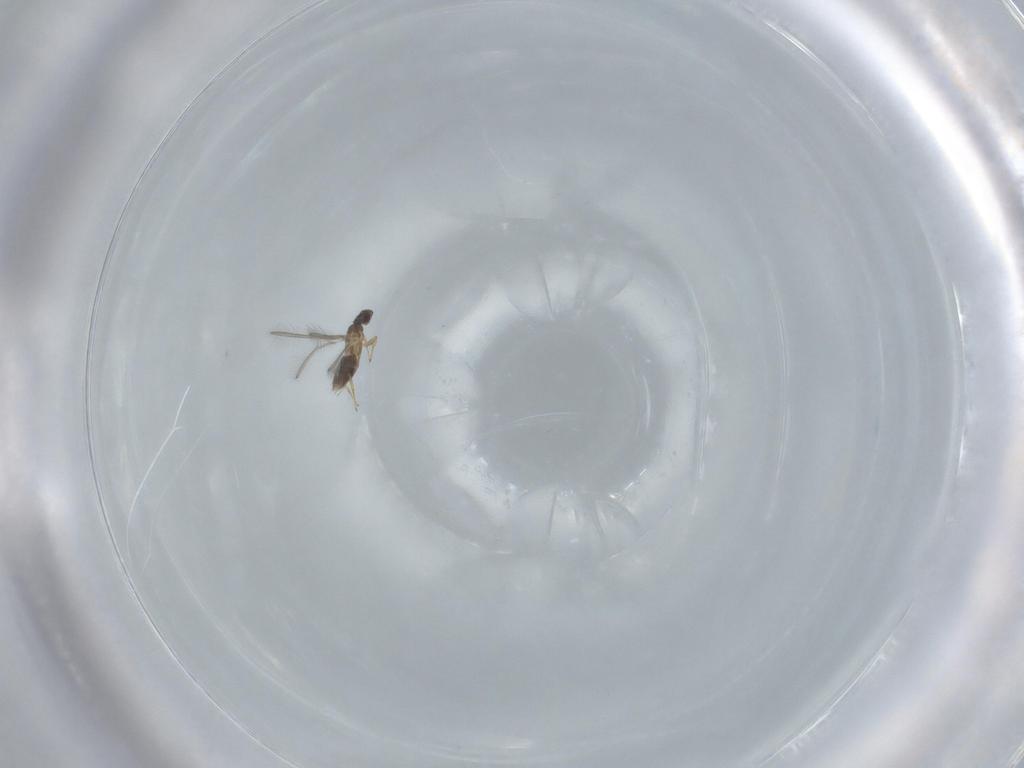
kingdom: Animalia
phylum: Arthropoda
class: Insecta
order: Hymenoptera
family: Mymaridae
